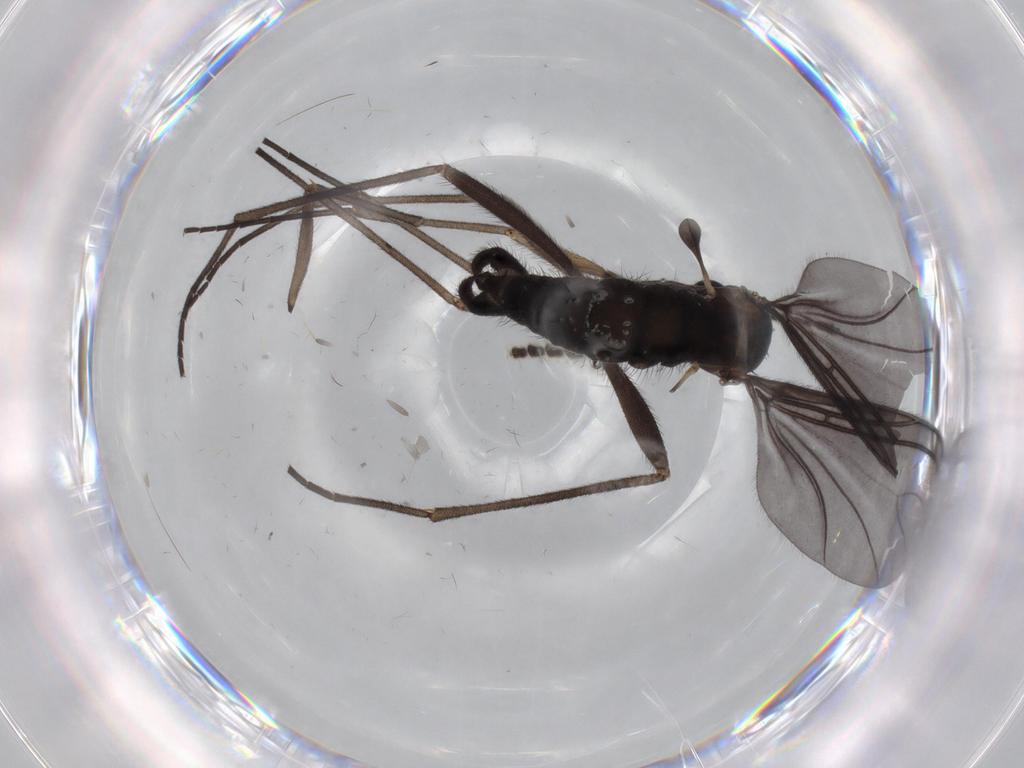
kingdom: Animalia
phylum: Arthropoda
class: Insecta
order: Diptera
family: Sciaridae
